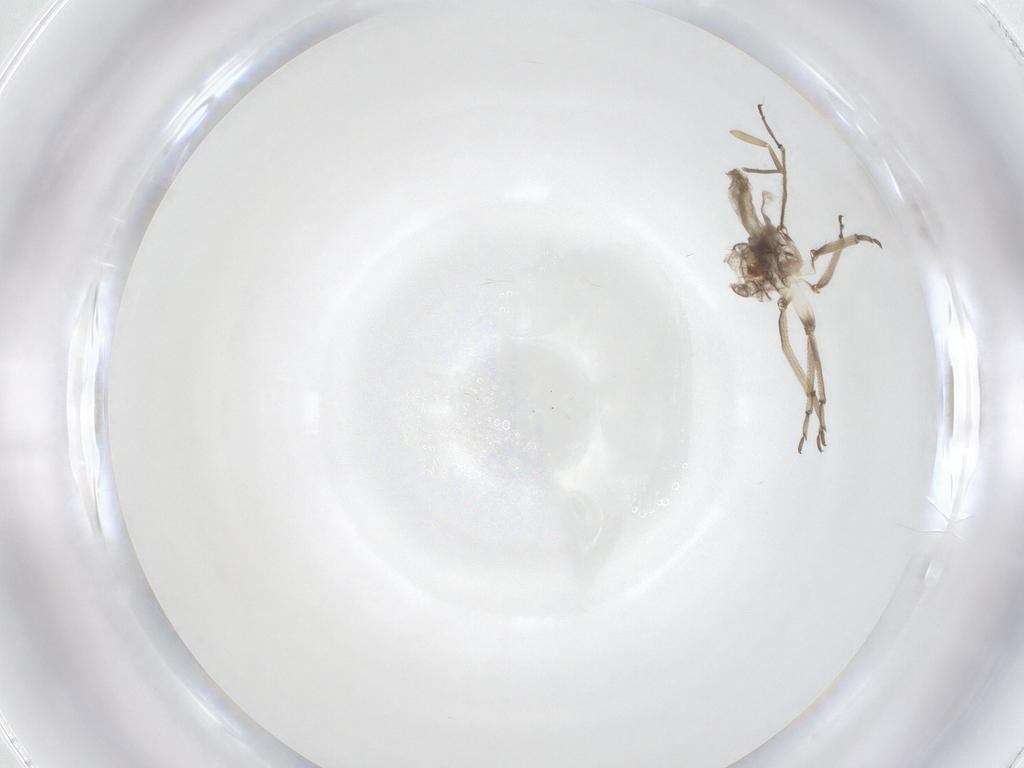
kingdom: Animalia
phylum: Arthropoda
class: Insecta
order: Diptera
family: Psychodidae
